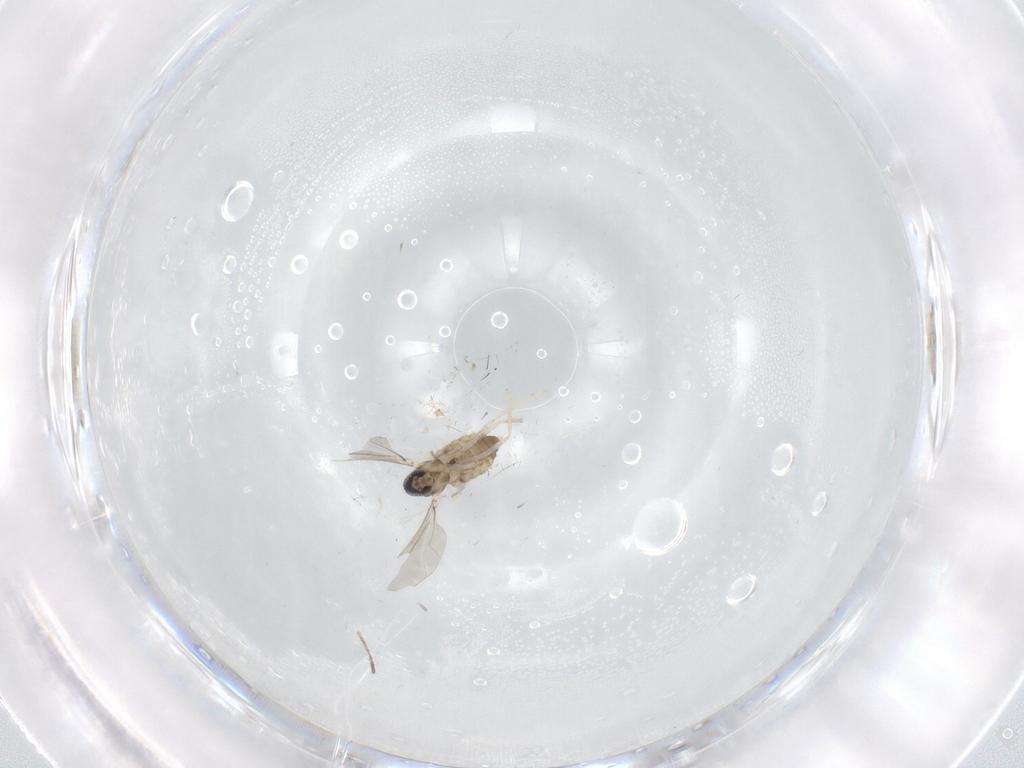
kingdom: Animalia
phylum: Arthropoda
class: Insecta
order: Diptera
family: Cecidomyiidae
